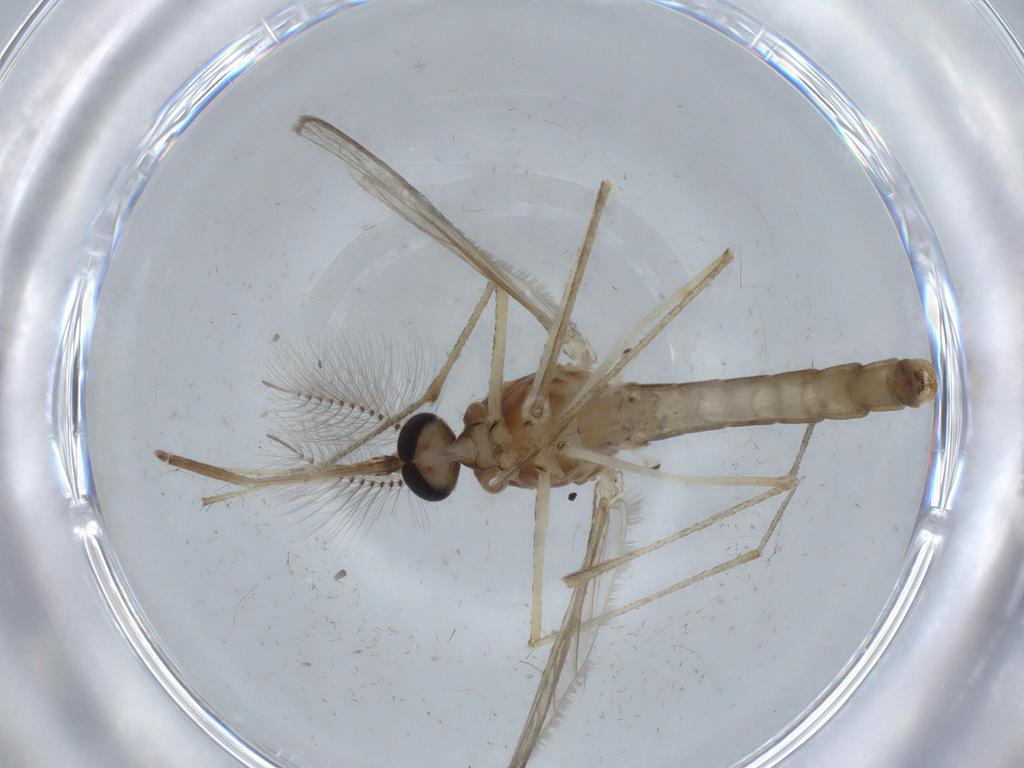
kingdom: Animalia
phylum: Arthropoda
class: Insecta
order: Diptera
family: Ceratopogonidae
